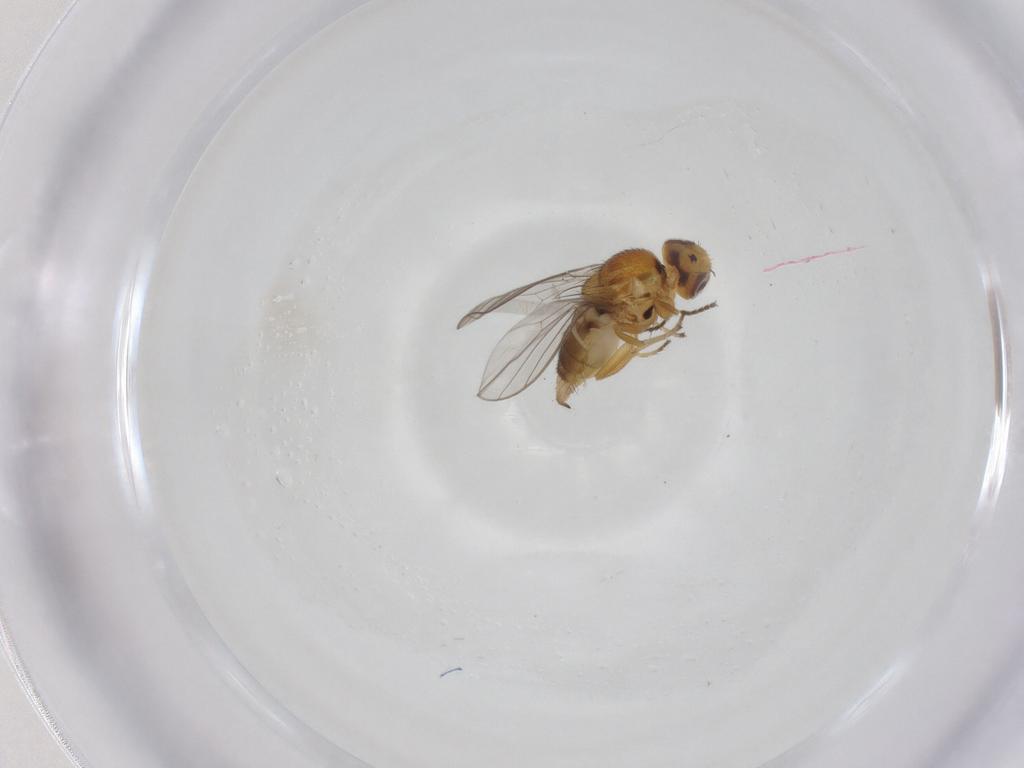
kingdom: Animalia
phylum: Arthropoda
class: Insecta
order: Diptera
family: Chloropidae
